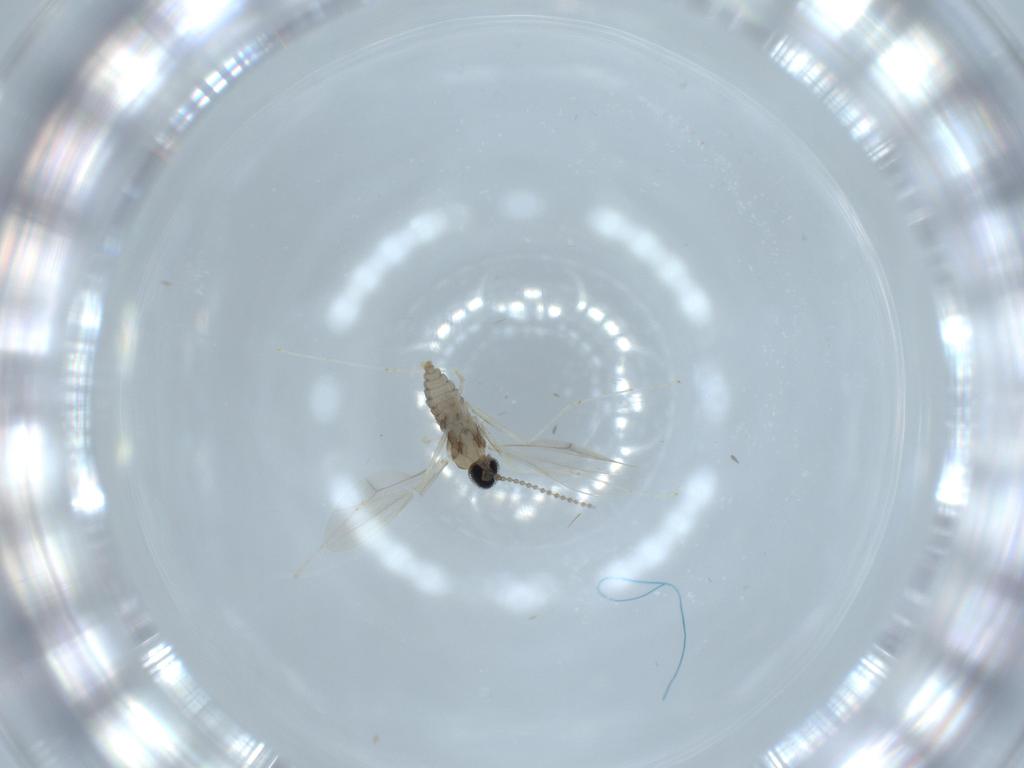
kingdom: Animalia
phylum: Arthropoda
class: Insecta
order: Diptera
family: Cecidomyiidae
